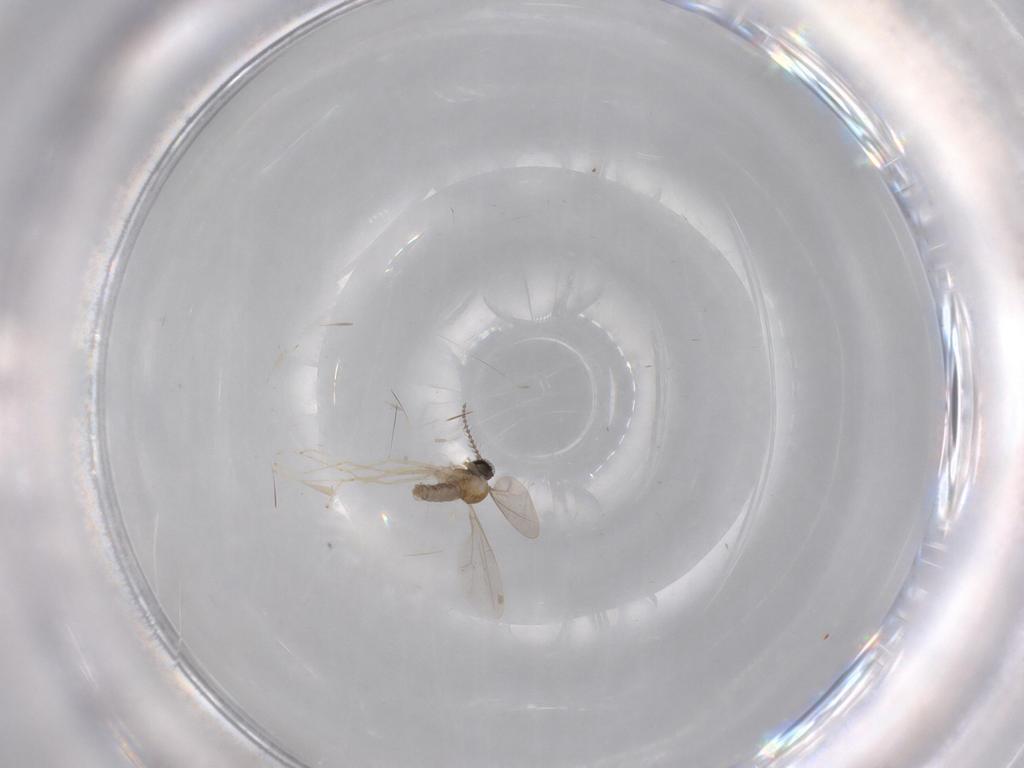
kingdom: Animalia
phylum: Arthropoda
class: Insecta
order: Diptera
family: Cecidomyiidae
